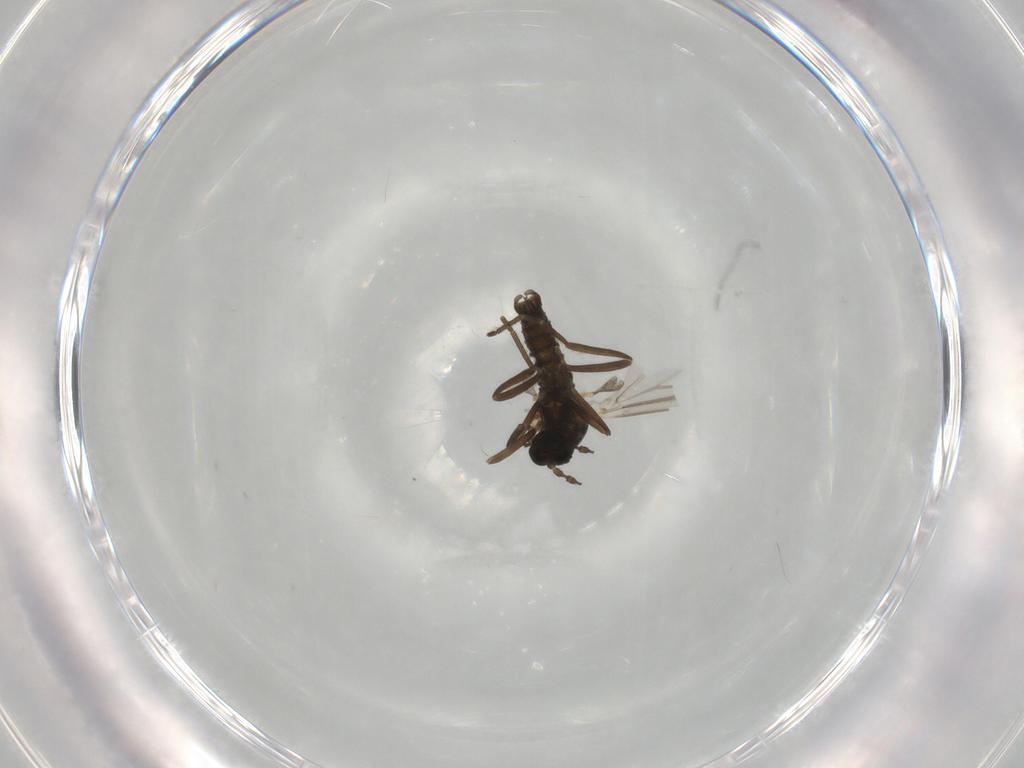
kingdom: Animalia
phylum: Arthropoda
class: Insecta
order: Diptera
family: Cecidomyiidae
